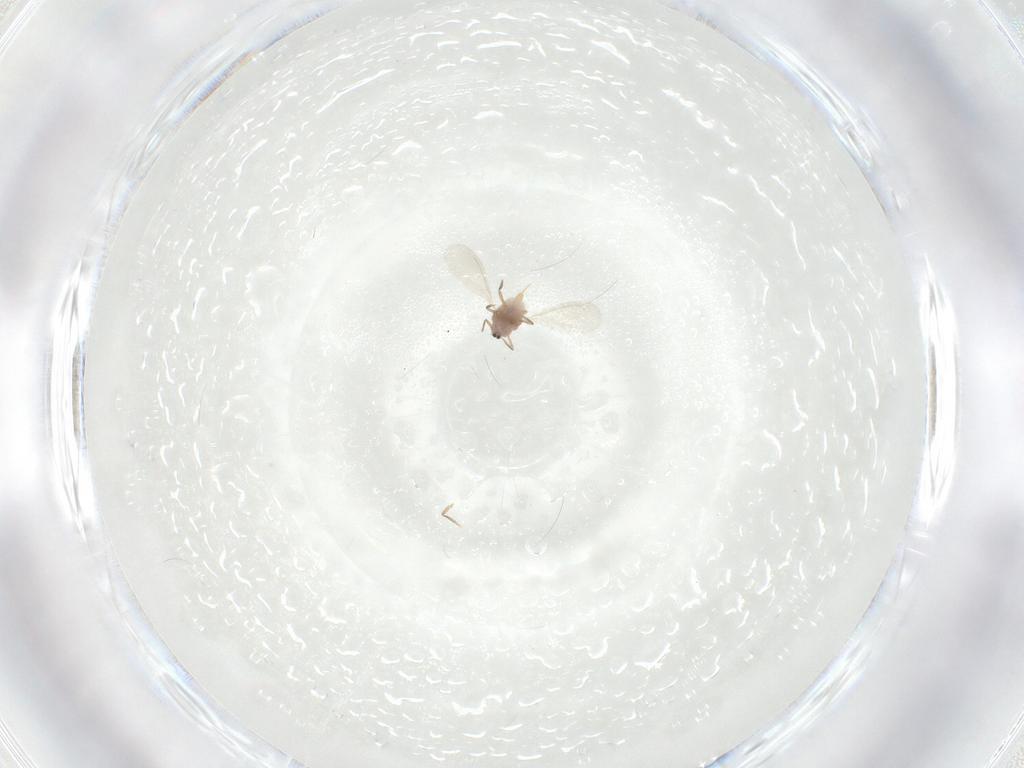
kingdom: Animalia
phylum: Arthropoda
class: Insecta
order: Hemiptera
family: Diaspididae
